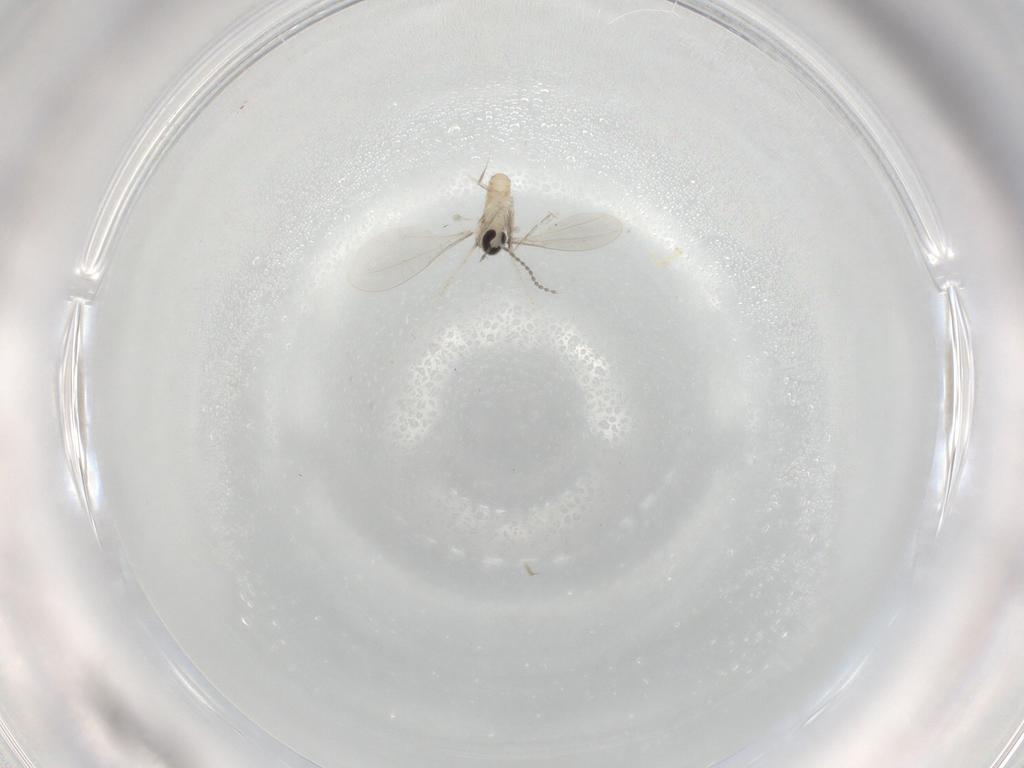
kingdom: Animalia
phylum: Arthropoda
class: Insecta
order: Diptera
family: Cecidomyiidae
